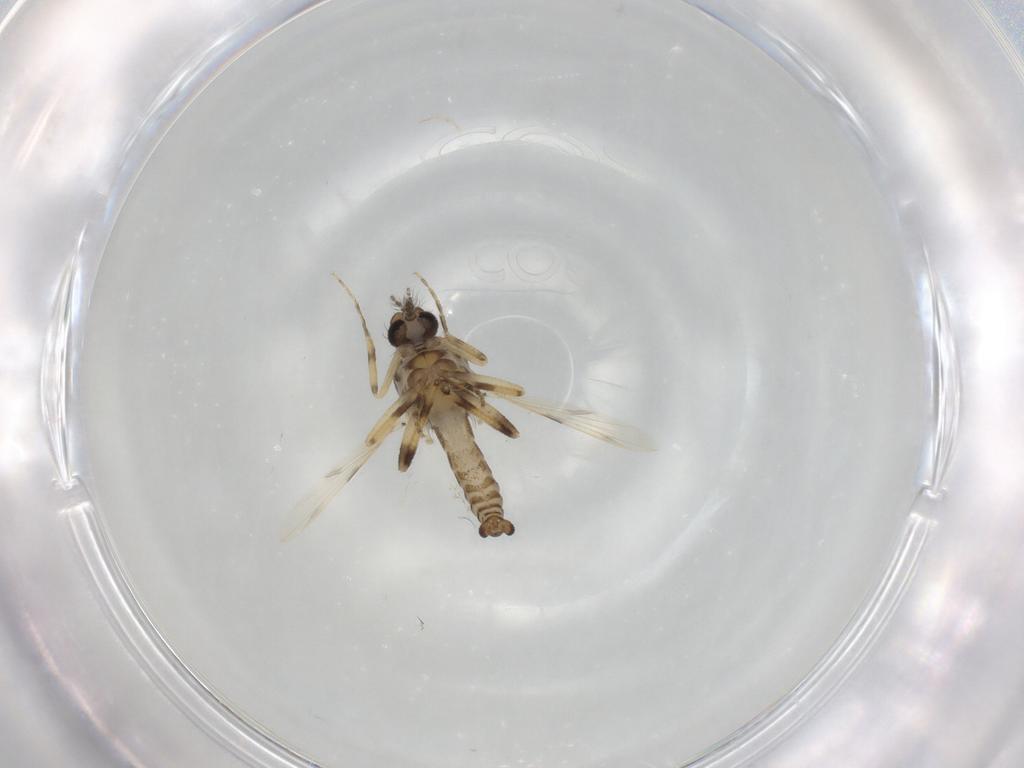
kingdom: Animalia
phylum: Arthropoda
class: Insecta
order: Diptera
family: Ceratopogonidae
